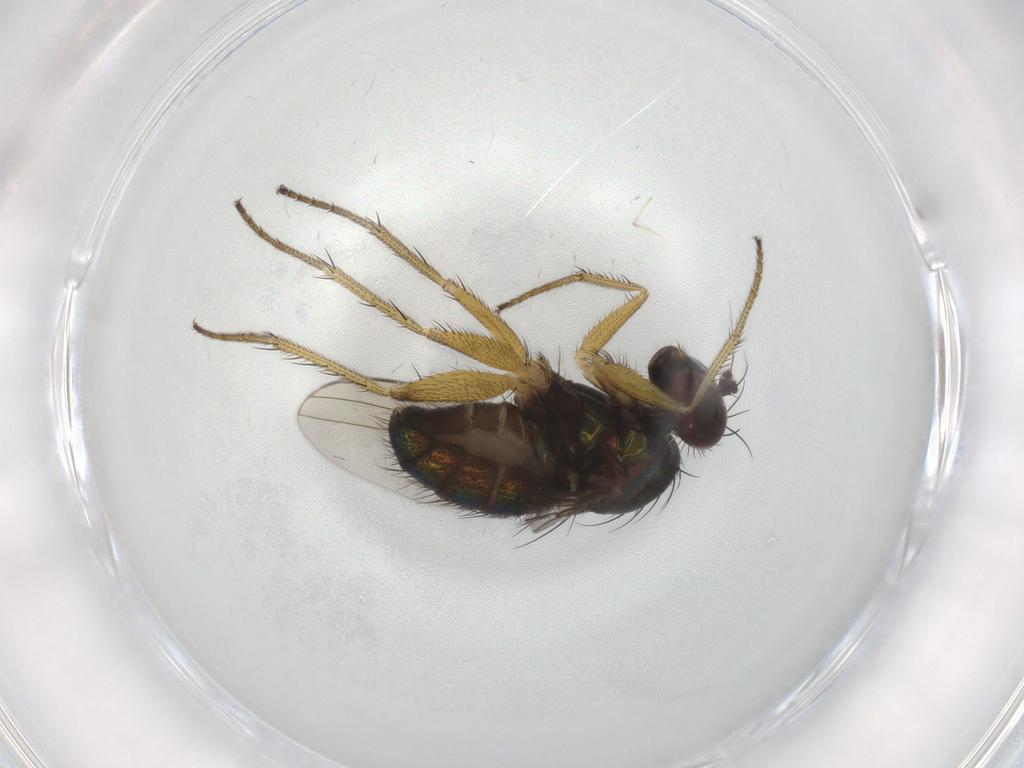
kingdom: Animalia
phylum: Arthropoda
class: Insecta
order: Diptera
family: Dolichopodidae
